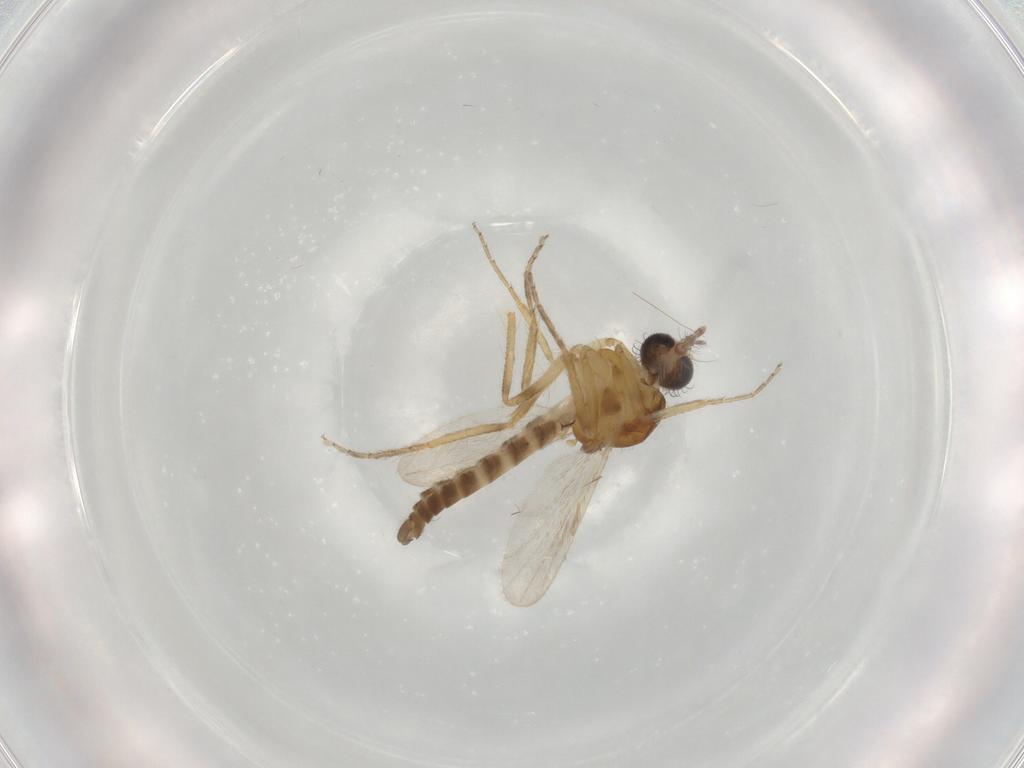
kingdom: Animalia
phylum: Arthropoda
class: Insecta
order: Diptera
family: Ceratopogonidae
